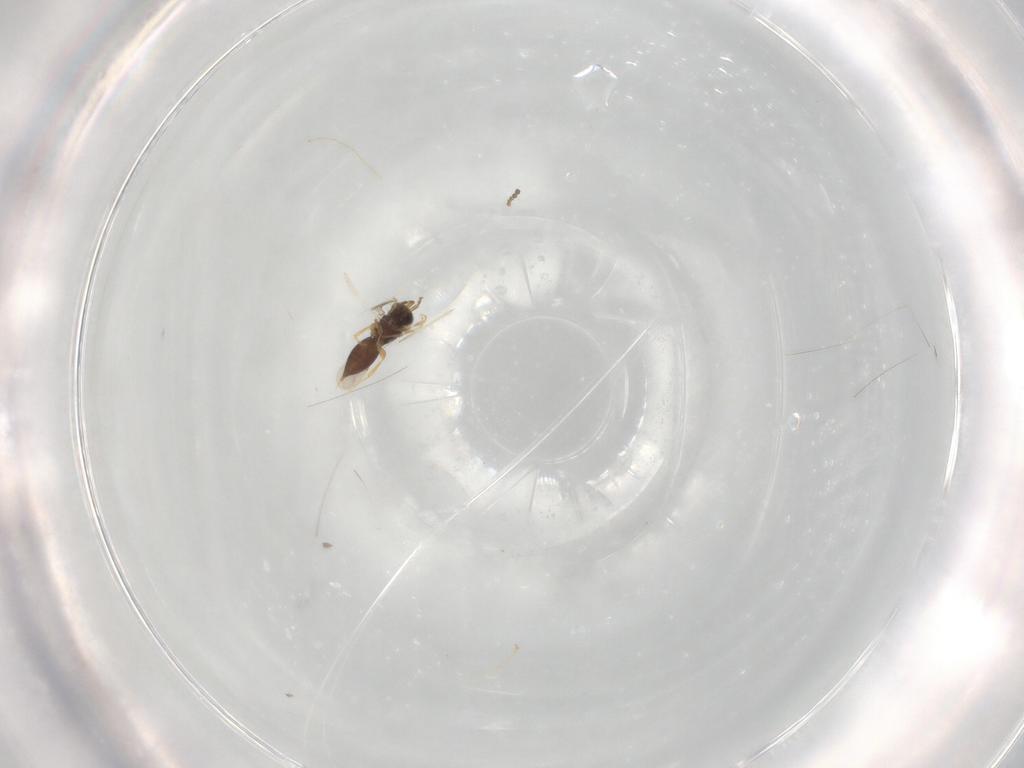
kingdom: Animalia
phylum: Arthropoda
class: Insecta
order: Hymenoptera
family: Ceraphronidae
